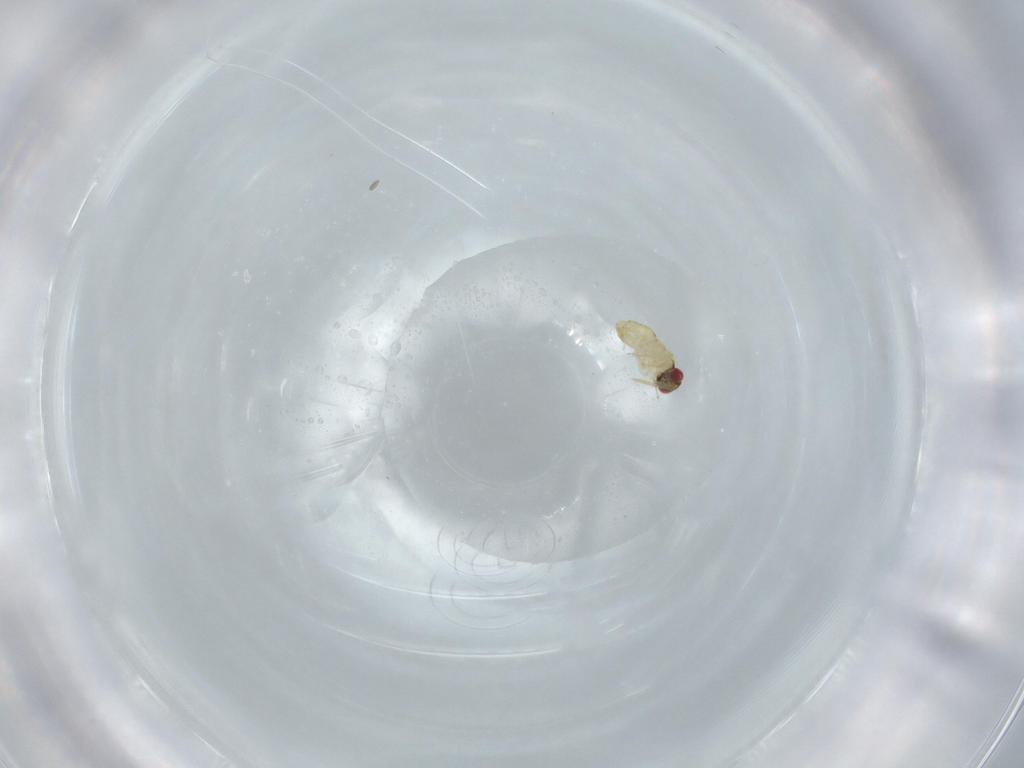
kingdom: Animalia
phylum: Arthropoda
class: Insecta
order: Hymenoptera
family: Aphelinidae
